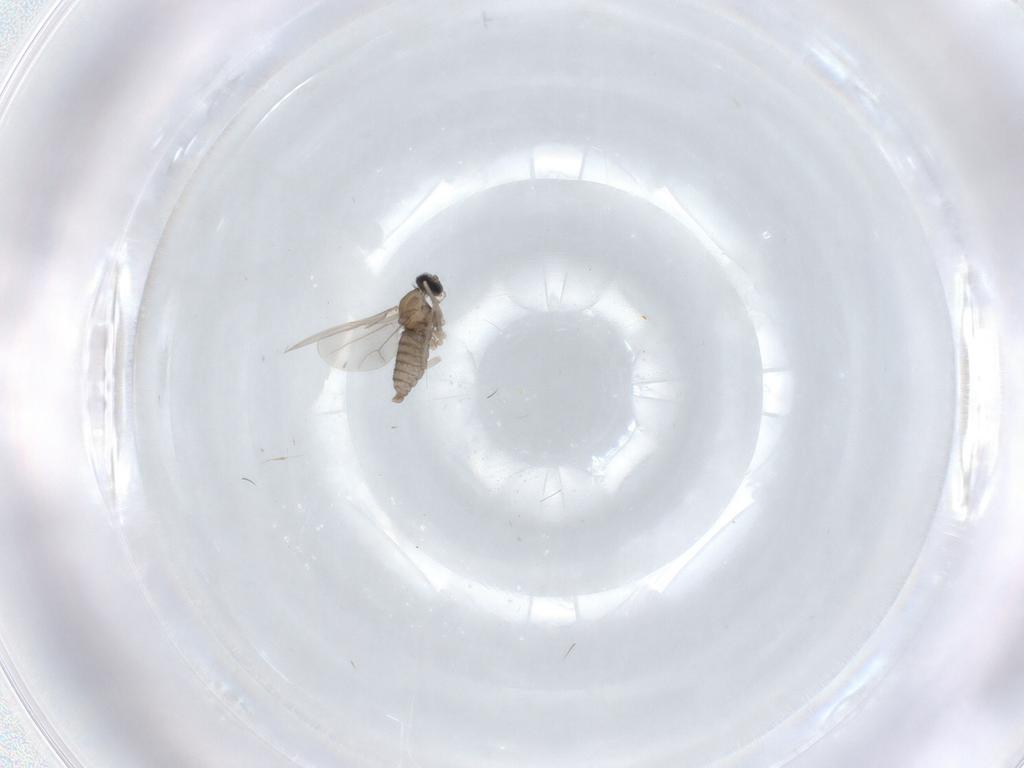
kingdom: Animalia
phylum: Arthropoda
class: Insecta
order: Diptera
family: Cecidomyiidae
